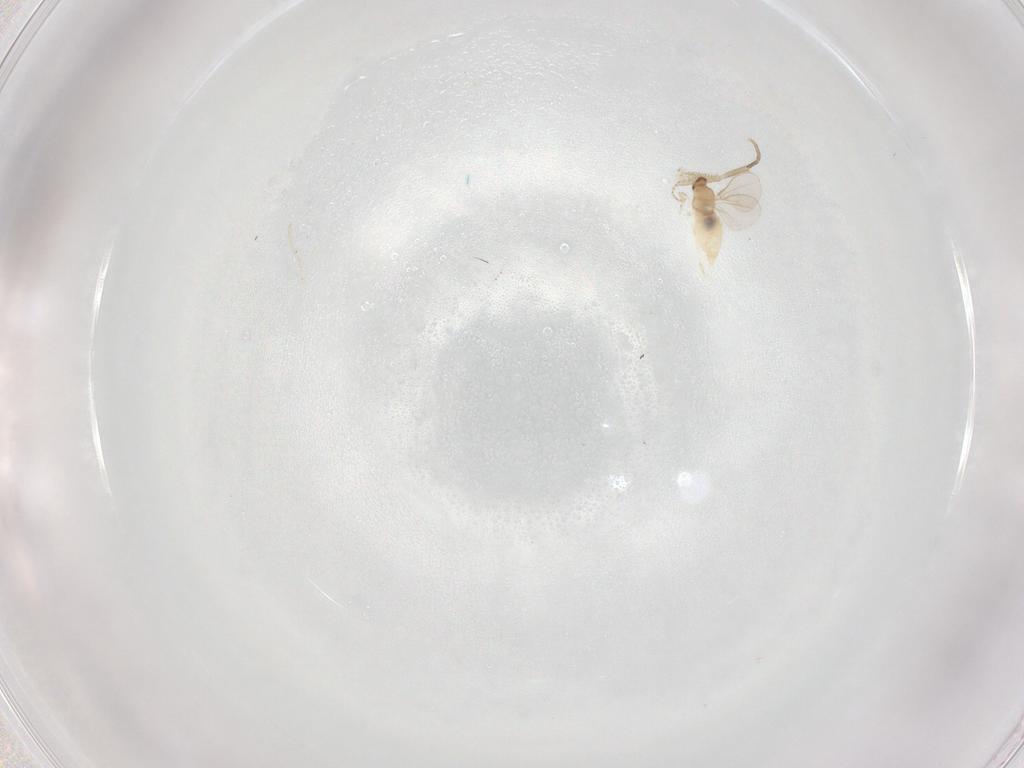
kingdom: Animalia
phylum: Arthropoda
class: Insecta
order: Diptera
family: Cecidomyiidae
